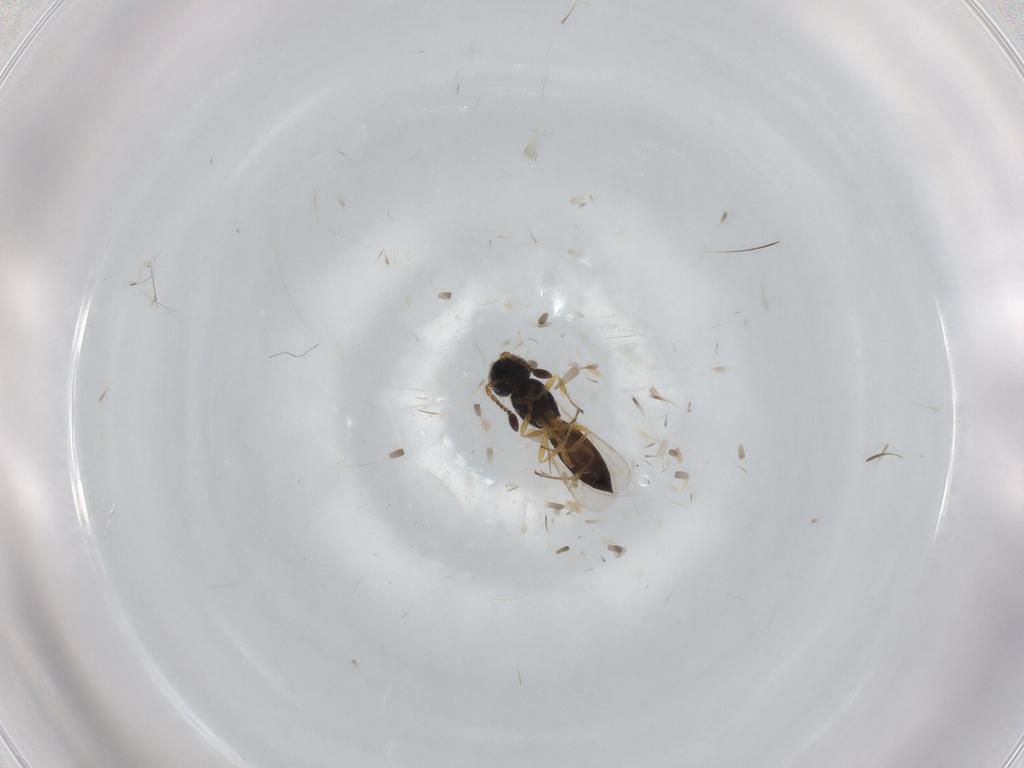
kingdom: Animalia
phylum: Arthropoda
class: Insecta
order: Hymenoptera
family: Scelionidae
